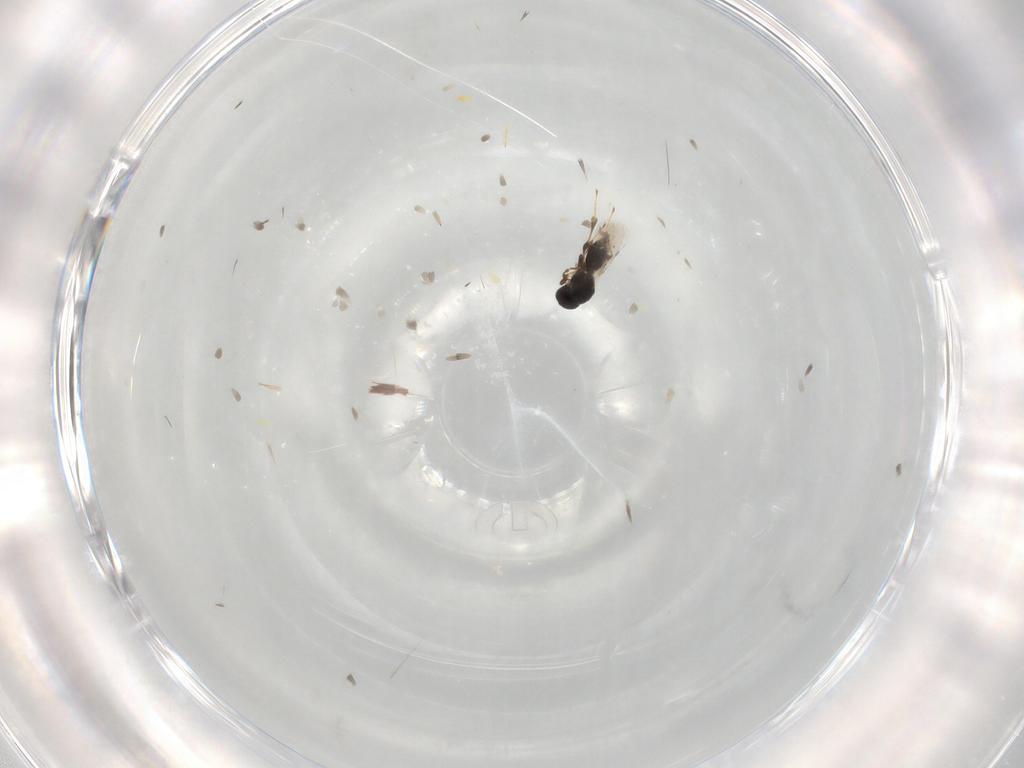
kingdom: Animalia
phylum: Arthropoda
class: Insecta
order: Hymenoptera
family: Platygastridae
